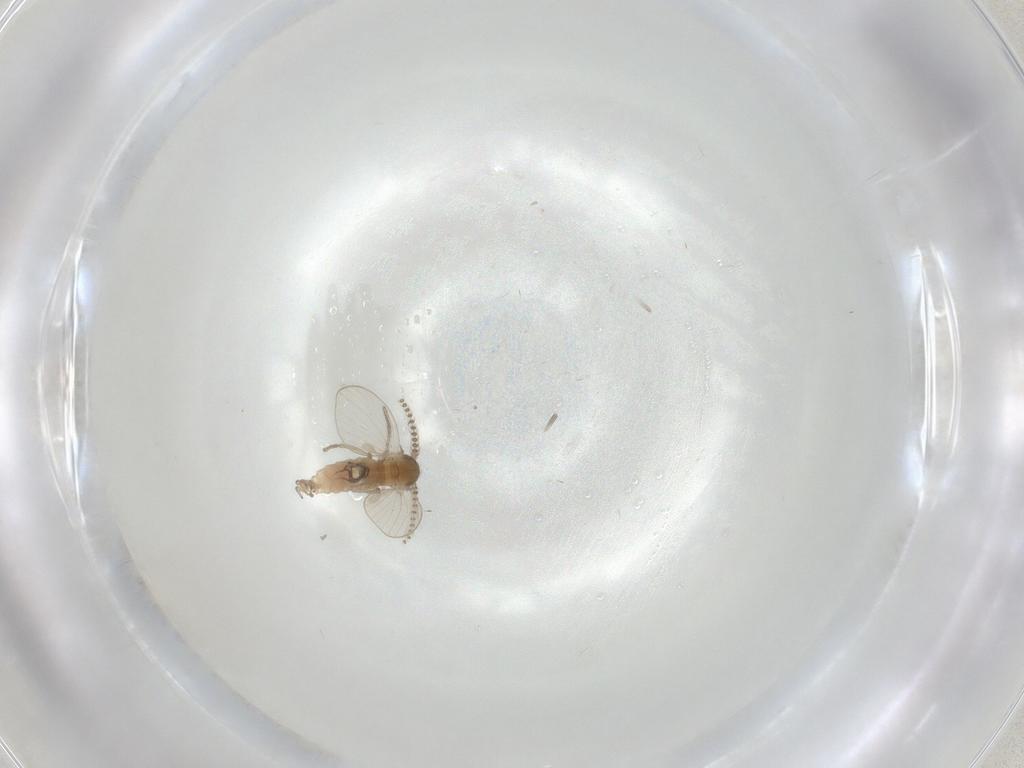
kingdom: Animalia
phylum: Arthropoda
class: Insecta
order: Diptera
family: Psychodidae
